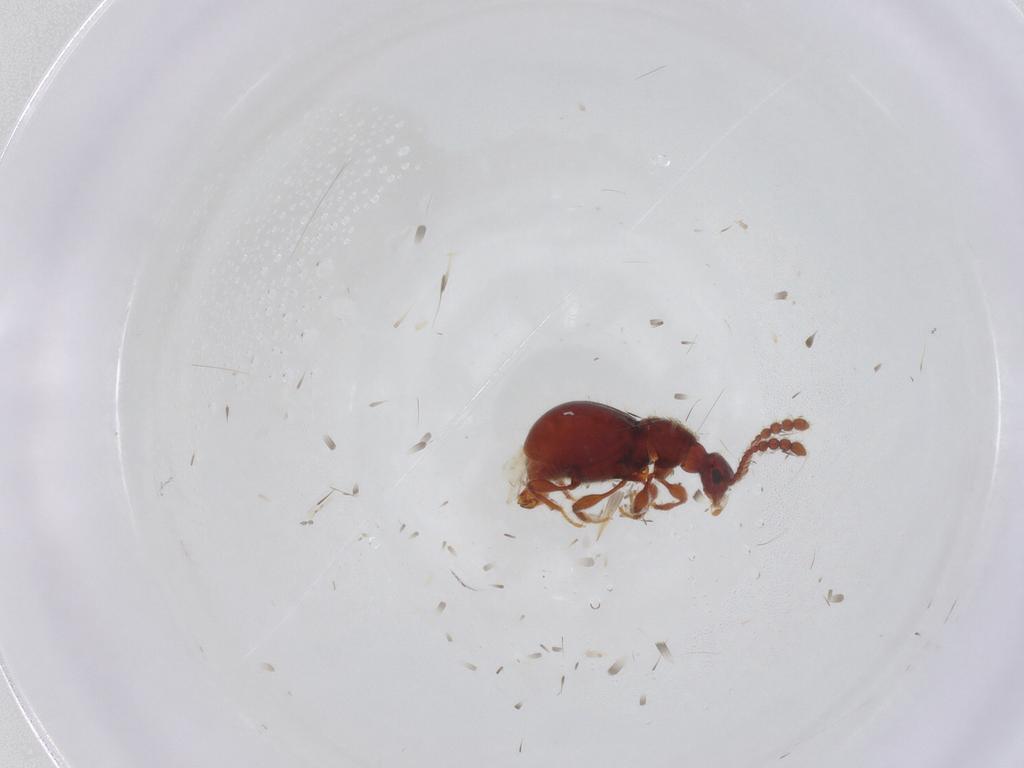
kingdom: Animalia
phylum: Arthropoda
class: Insecta
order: Coleoptera
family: Staphylinidae
